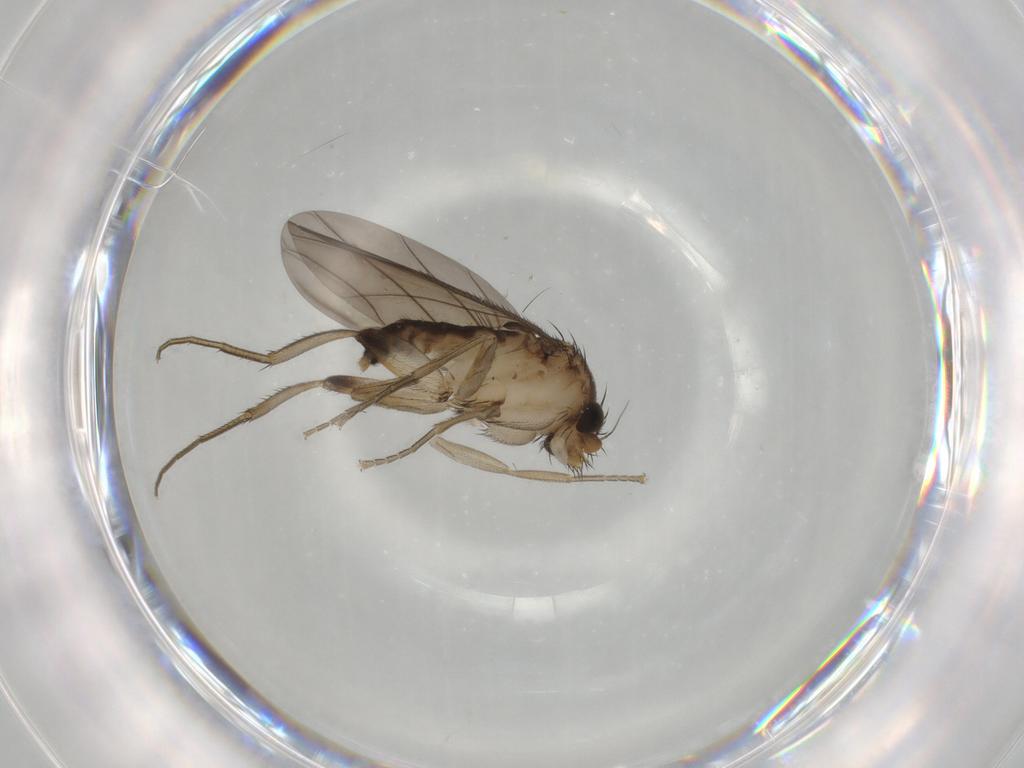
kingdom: Animalia
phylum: Arthropoda
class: Insecta
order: Diptera
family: Phoridae
